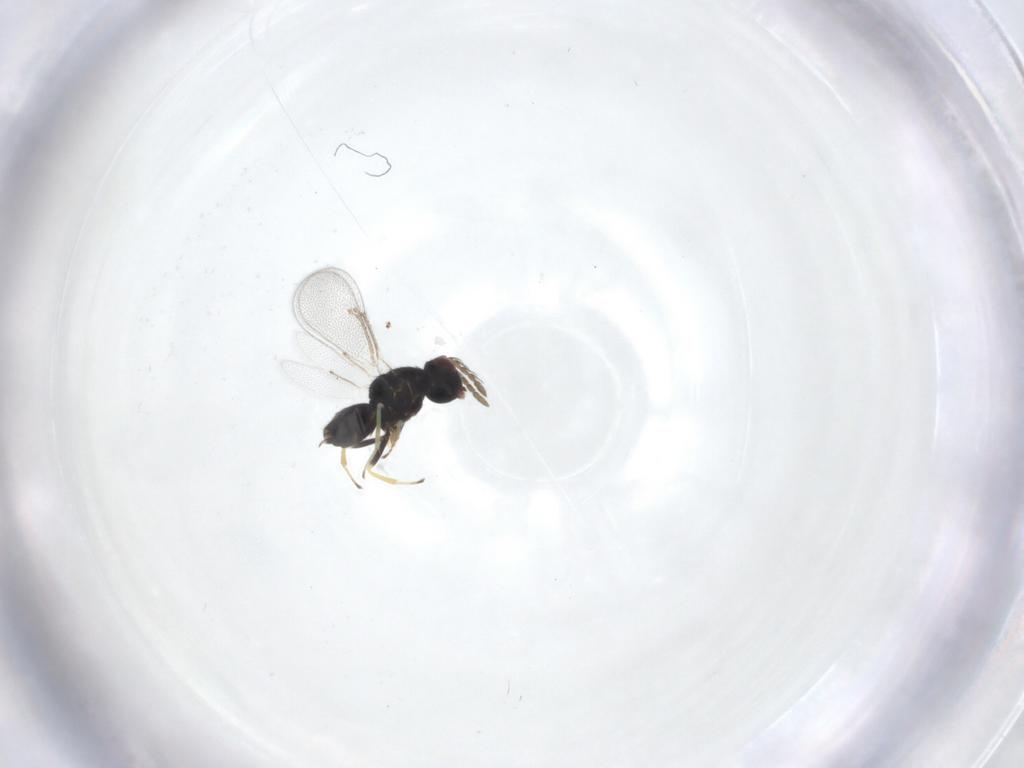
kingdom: Animalia
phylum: Arthropoda
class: Insecta
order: Hymenoptera
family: Eulophidae
